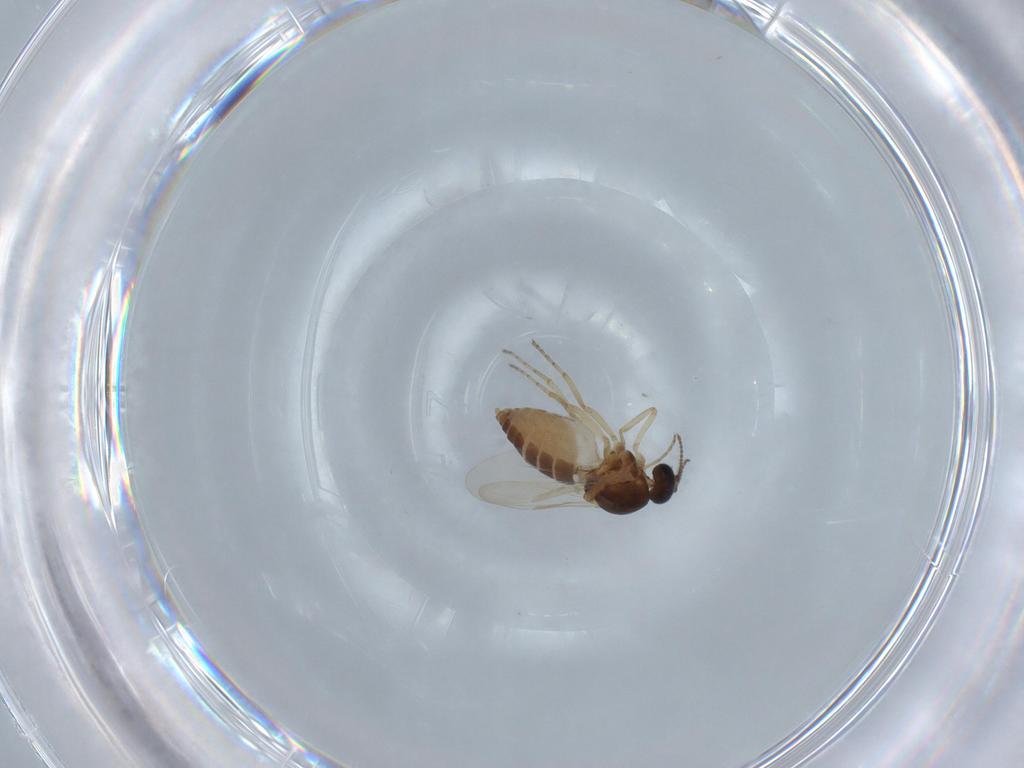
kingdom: Animalia
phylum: Arthropoda
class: Insecta
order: Diptera
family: Ceratopogonidae
